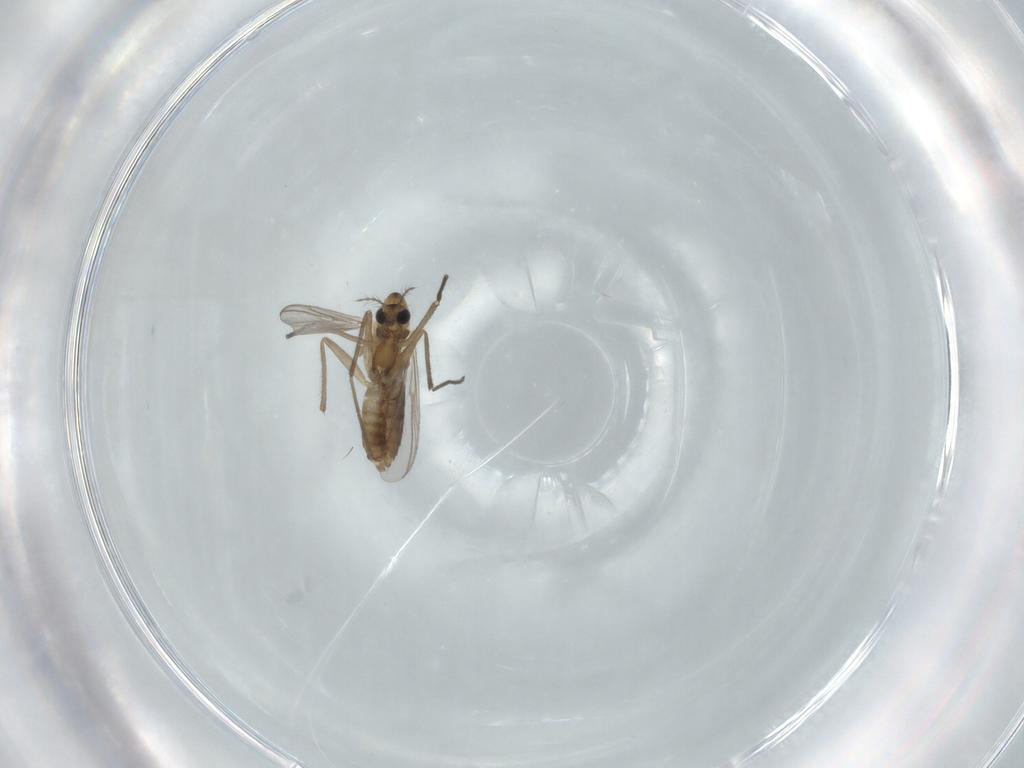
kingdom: Animalia
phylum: Arthropoda
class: Insecta
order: Diptera
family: Chironomidae
